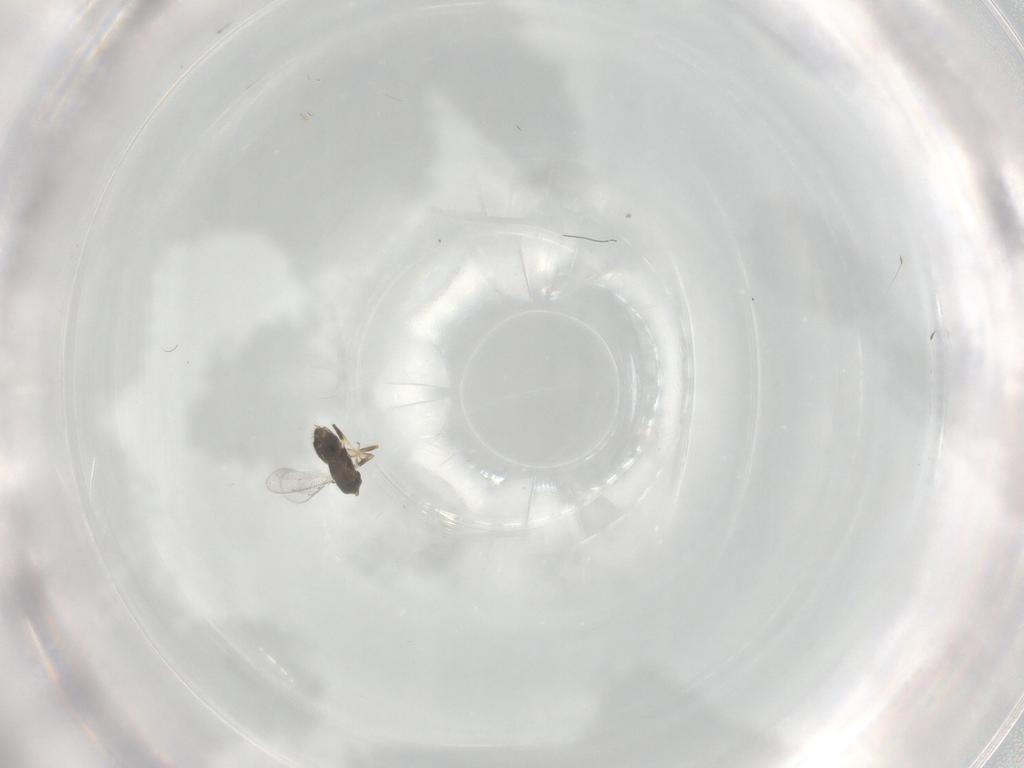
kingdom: Animalia
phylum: Arthropoda
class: Insecta
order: Hymenoptera
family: Aphelinidae
